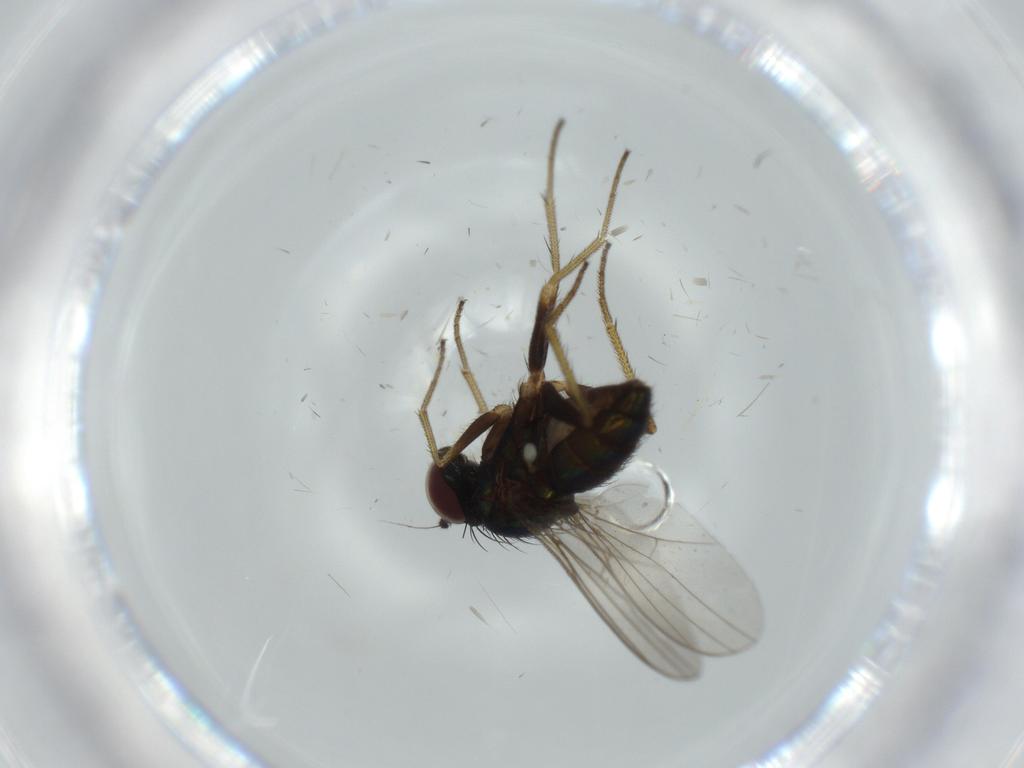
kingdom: Animalia
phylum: Arthropoda
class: Insecta
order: Diptera
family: Dolichopodidae
